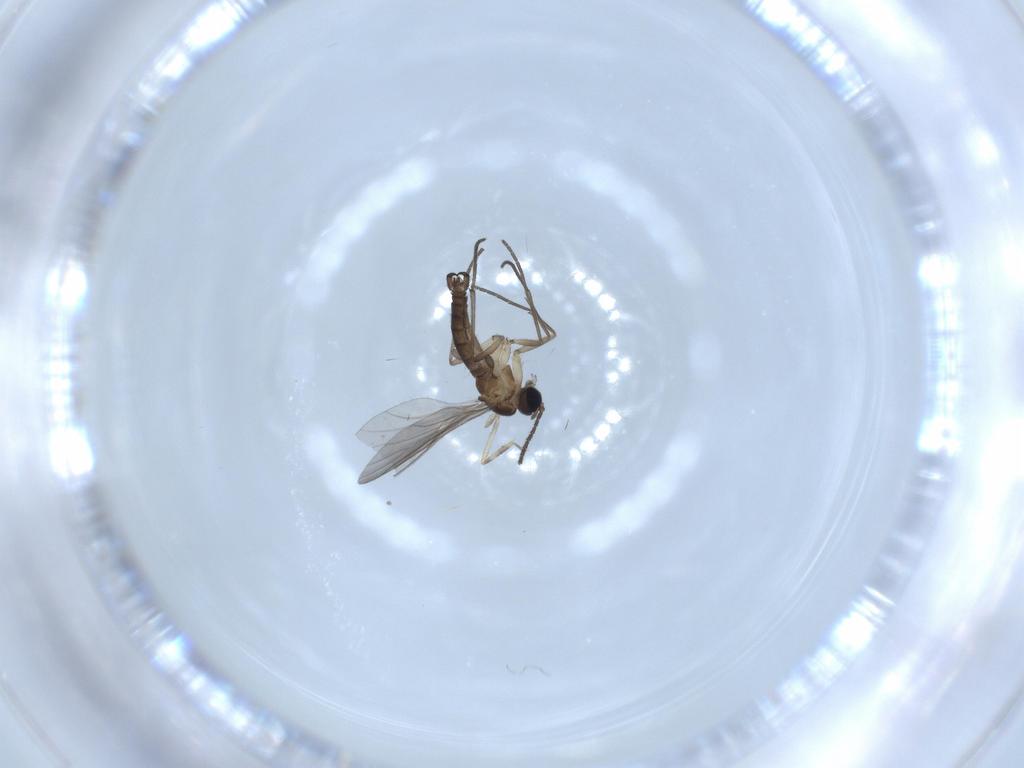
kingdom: Animalia
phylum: Arthropoda
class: Insecta
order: Diptera
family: Sciaridae
